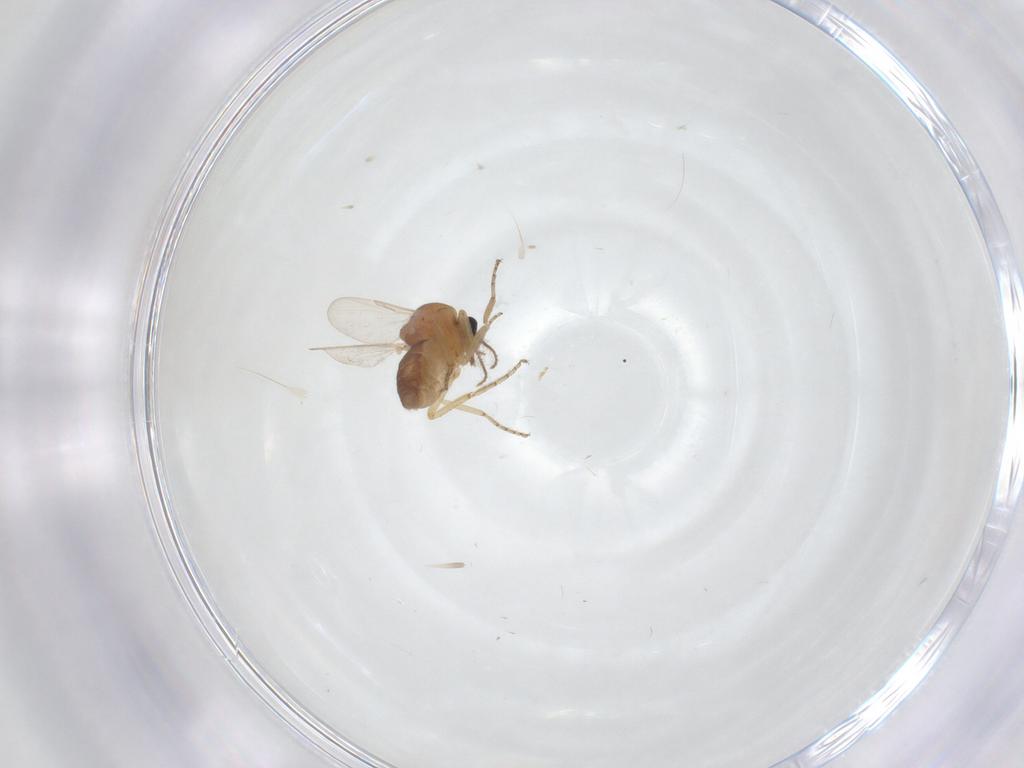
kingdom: Animalia
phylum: Arthropoda
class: Insecta
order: Diptera
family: Ceratopogonidae
